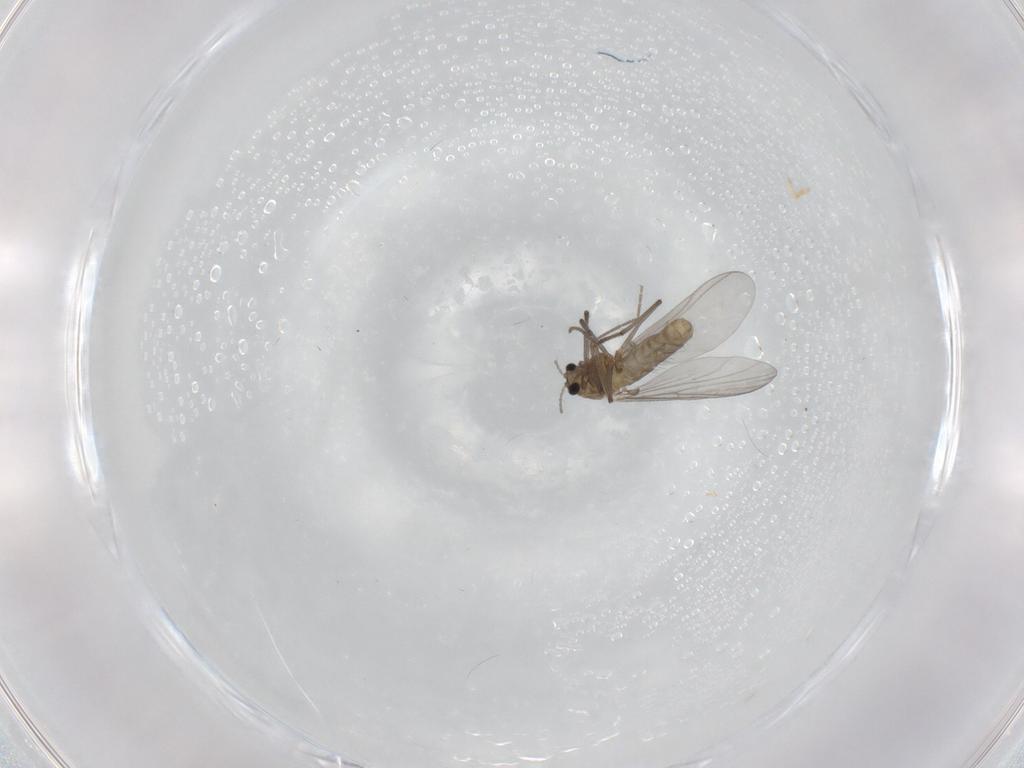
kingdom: Animalia
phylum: Arthropoda
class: Insecta
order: Diptera
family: Chironomidae
